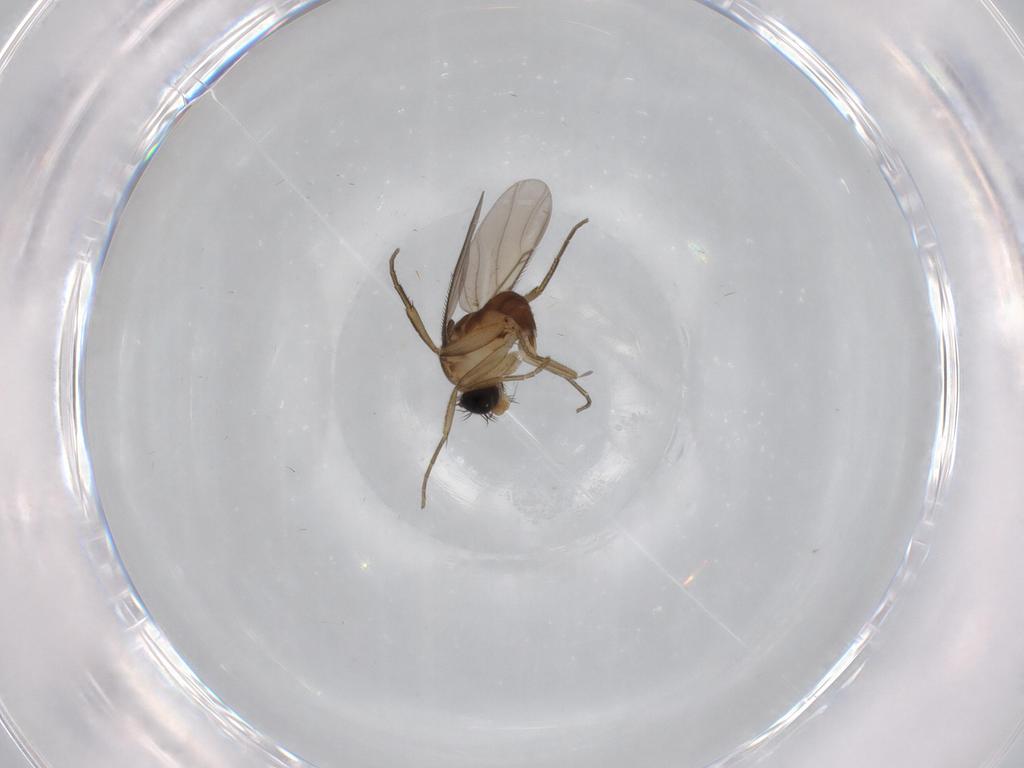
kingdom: Animalia
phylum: Arthropoda
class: Insecta
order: Diptera
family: Phoridae
